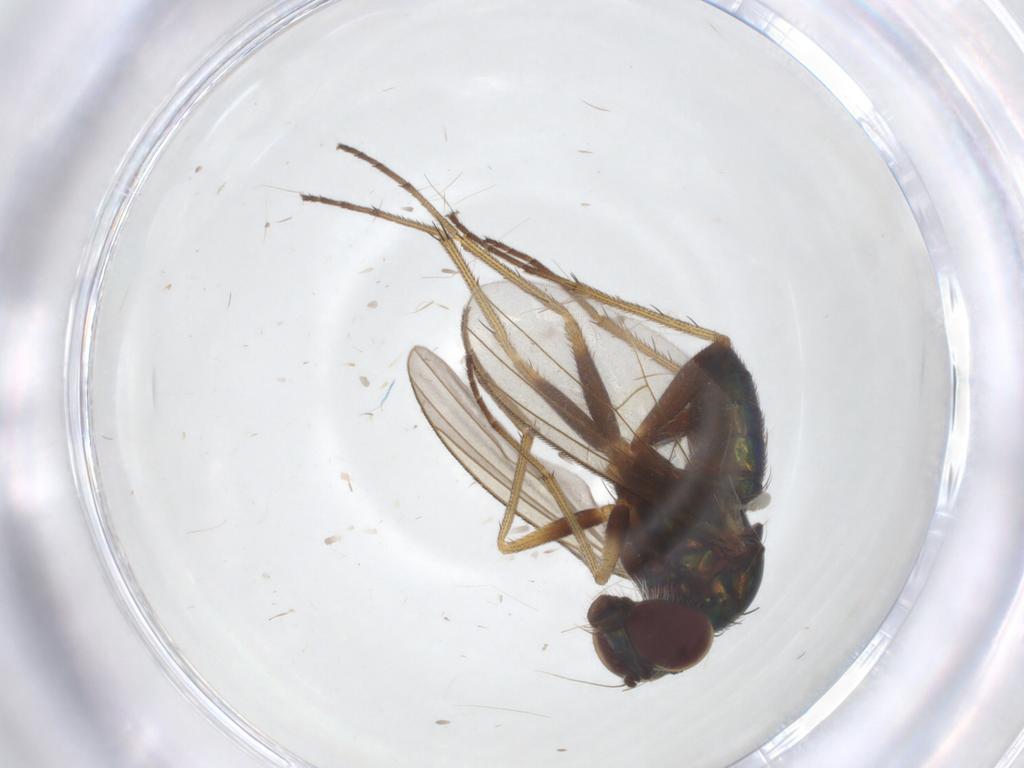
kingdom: Animalia
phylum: Arthropoda
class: Insecta
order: Diptera
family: Dolichopodidae
